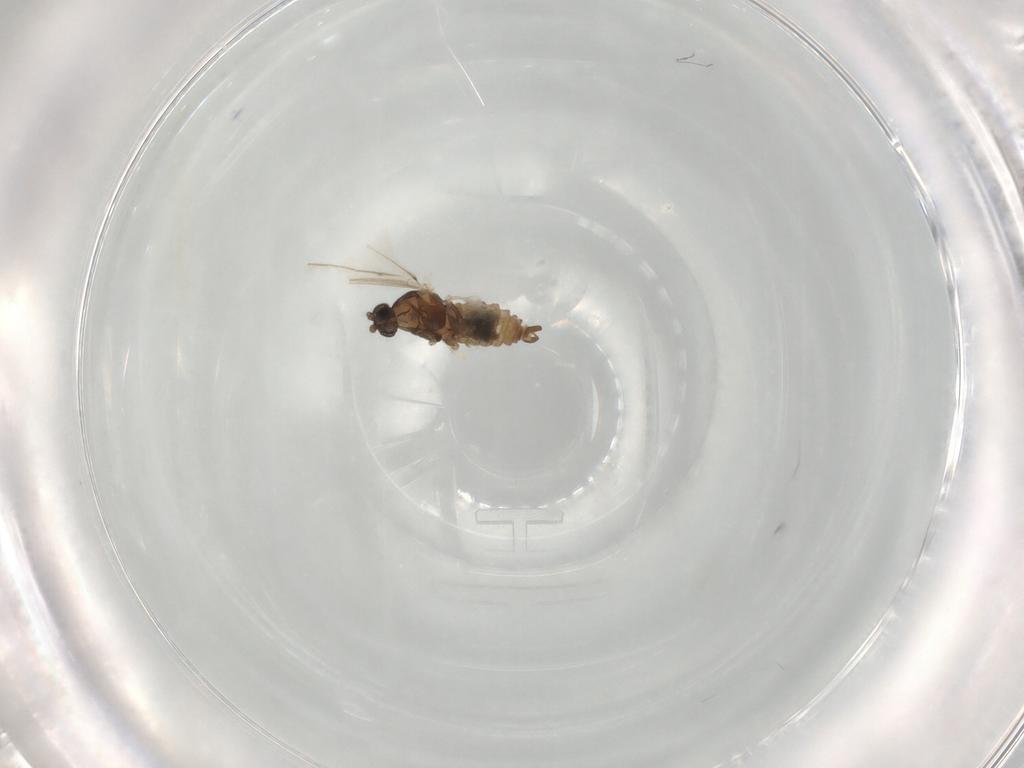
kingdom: Animalia
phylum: Arthropoda
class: Insecta
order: Diptera
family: Cecidomyiidae
